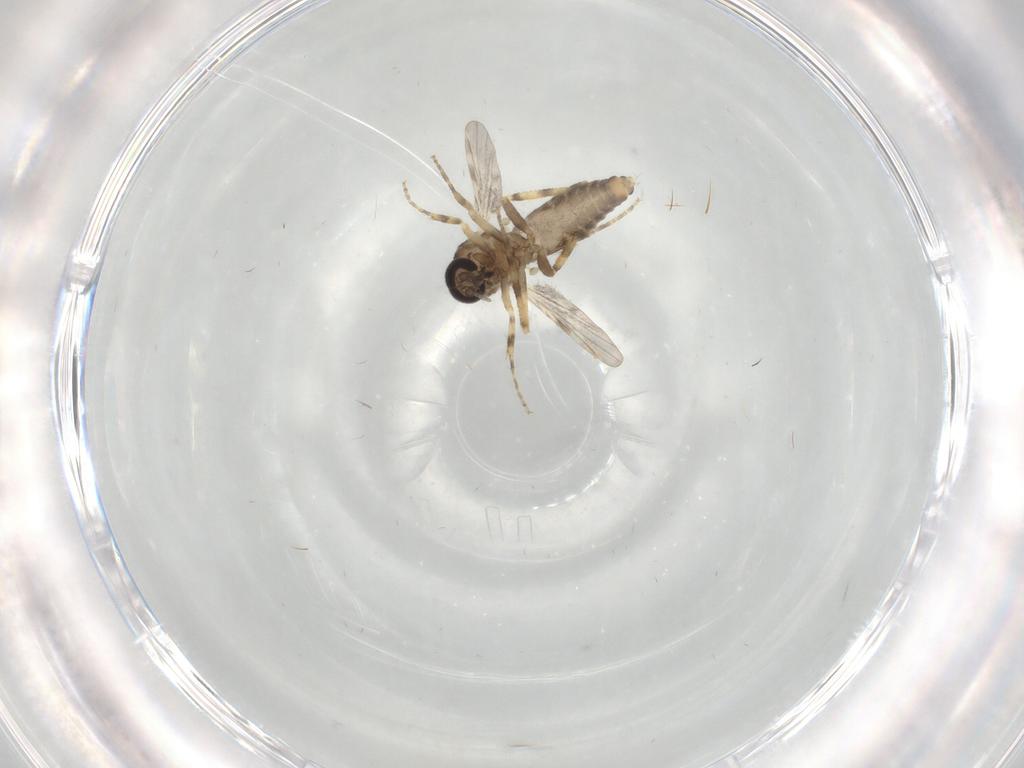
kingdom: Animalia
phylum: Arthropoda
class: Insecta
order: Diptera
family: Ceratopogonidae
